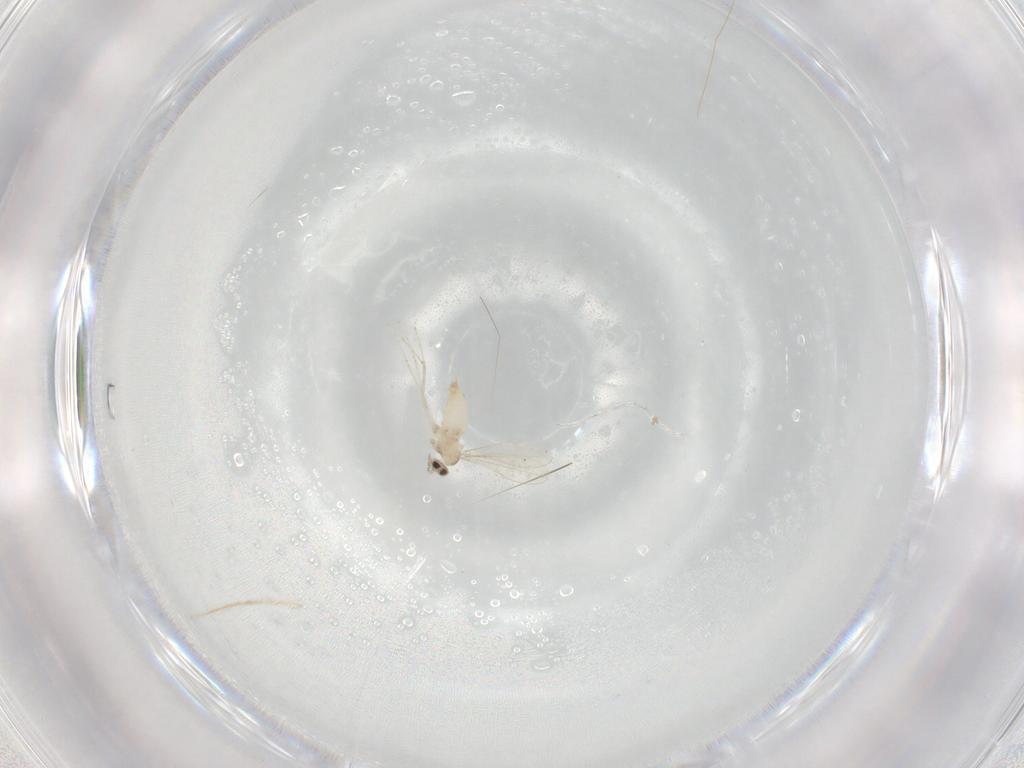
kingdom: Animalia
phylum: Arthropoda
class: Insecta
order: Diptera
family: Cecidomyiidae
